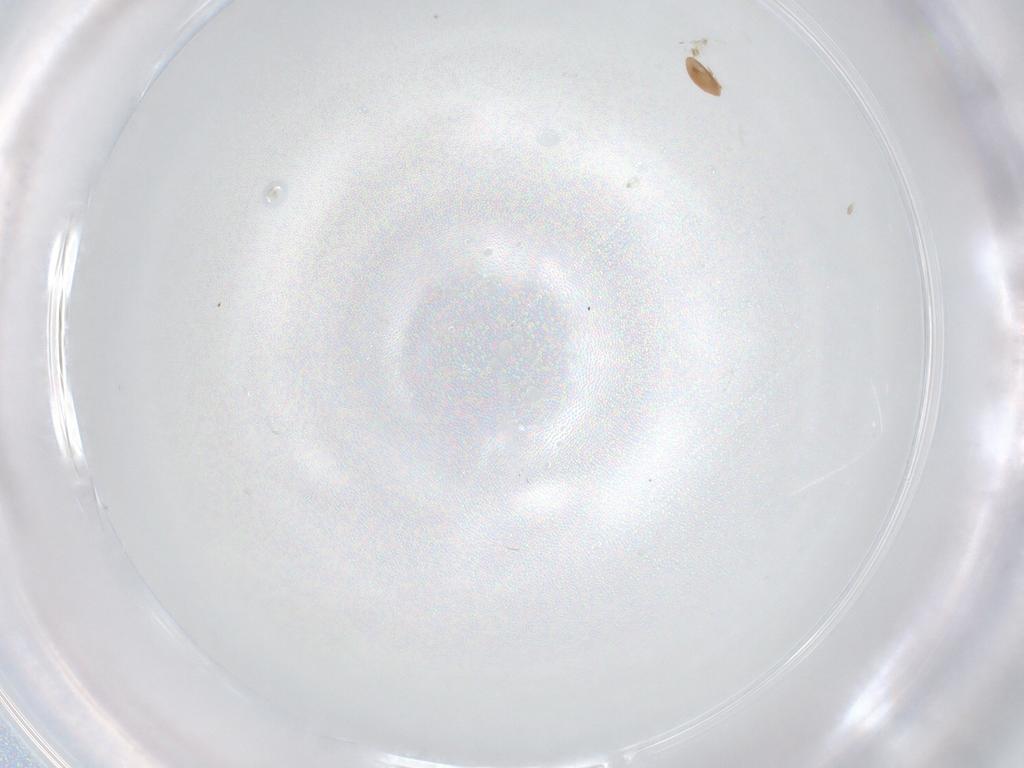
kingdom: Animalia
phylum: Arthropoda
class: Arachnida
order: Mesostigmata
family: Trematuridae
